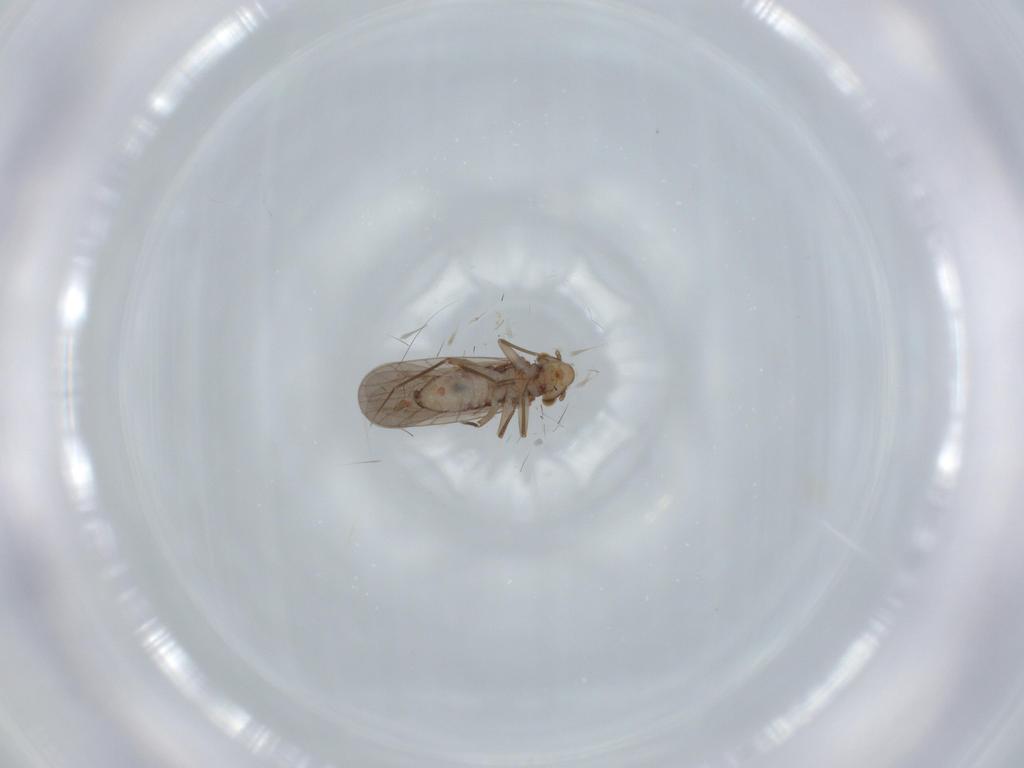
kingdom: Animalia
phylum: Arthropoda
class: Insecta
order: Psocodea
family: Lepidopsocidae
